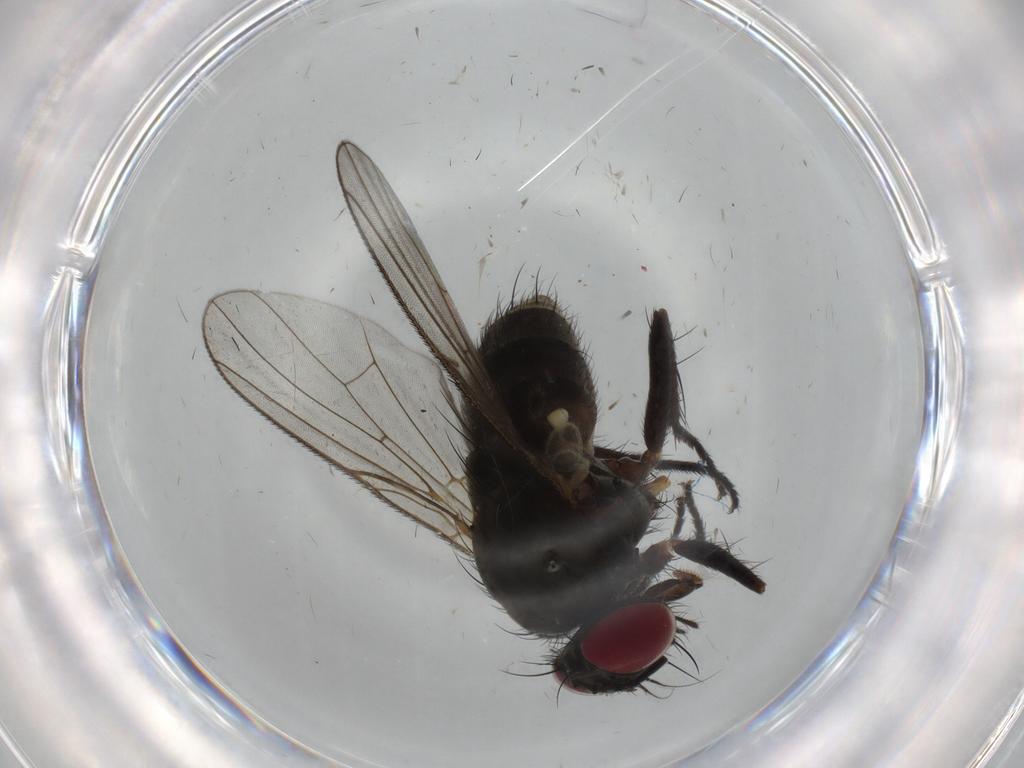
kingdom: Animalia
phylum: Arthropoda
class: Insecta
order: Diptera
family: Muscidae
